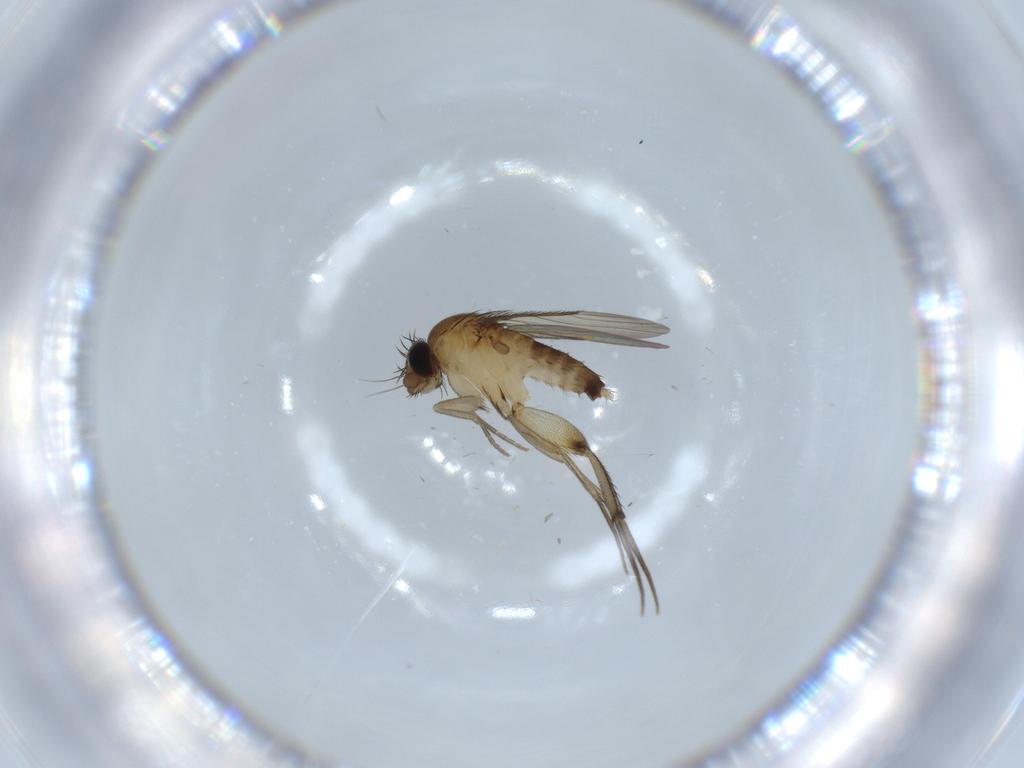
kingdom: Animalia
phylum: Arthropoda
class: Insecta
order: Diptera
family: Phoridae
